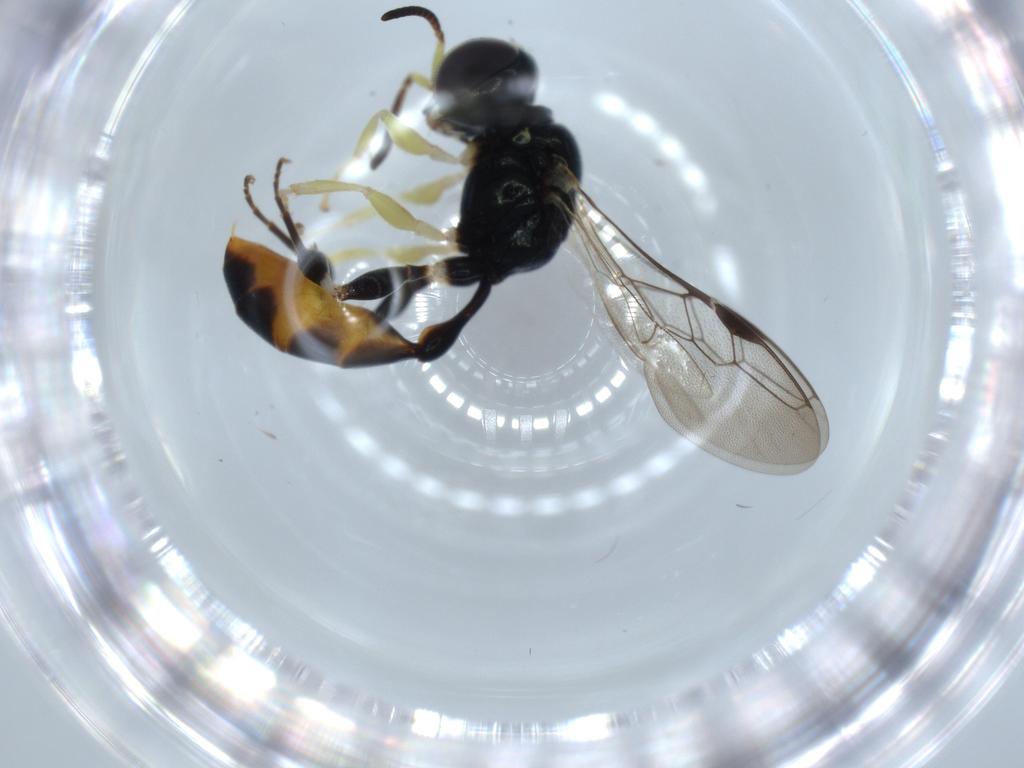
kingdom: Animalia
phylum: Arthropoda
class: Insecta
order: Hymenoptera
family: Crabronidae
